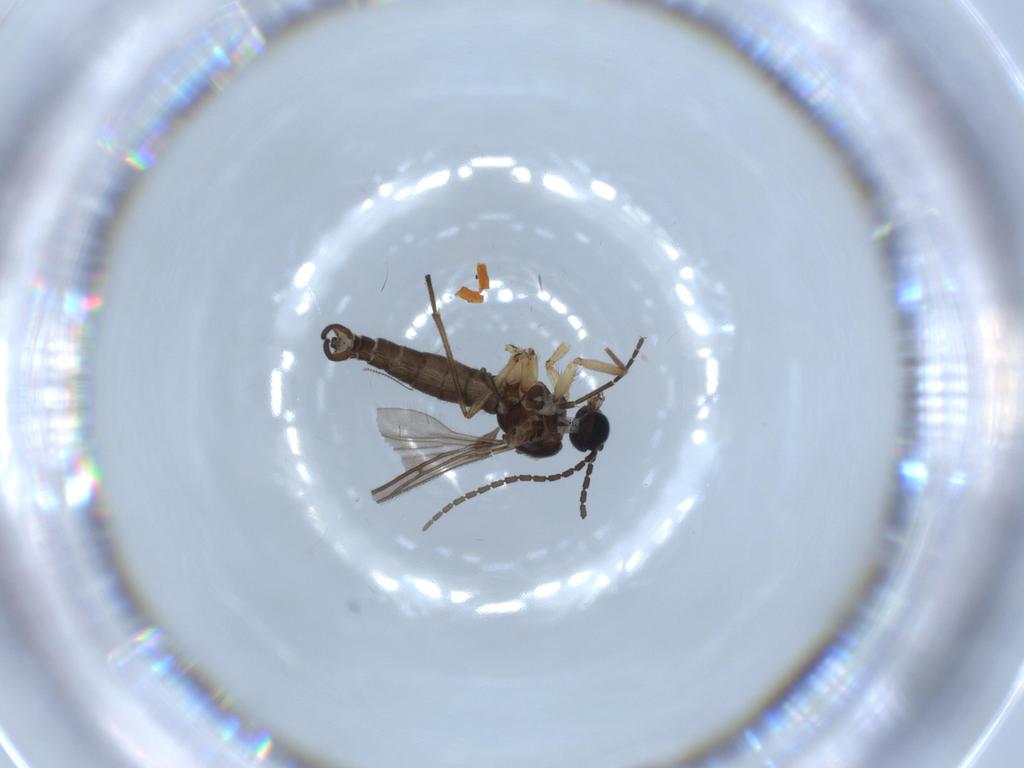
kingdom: Animalia
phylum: Arthropoda
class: Insecta
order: Diptera
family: Sciaridae
